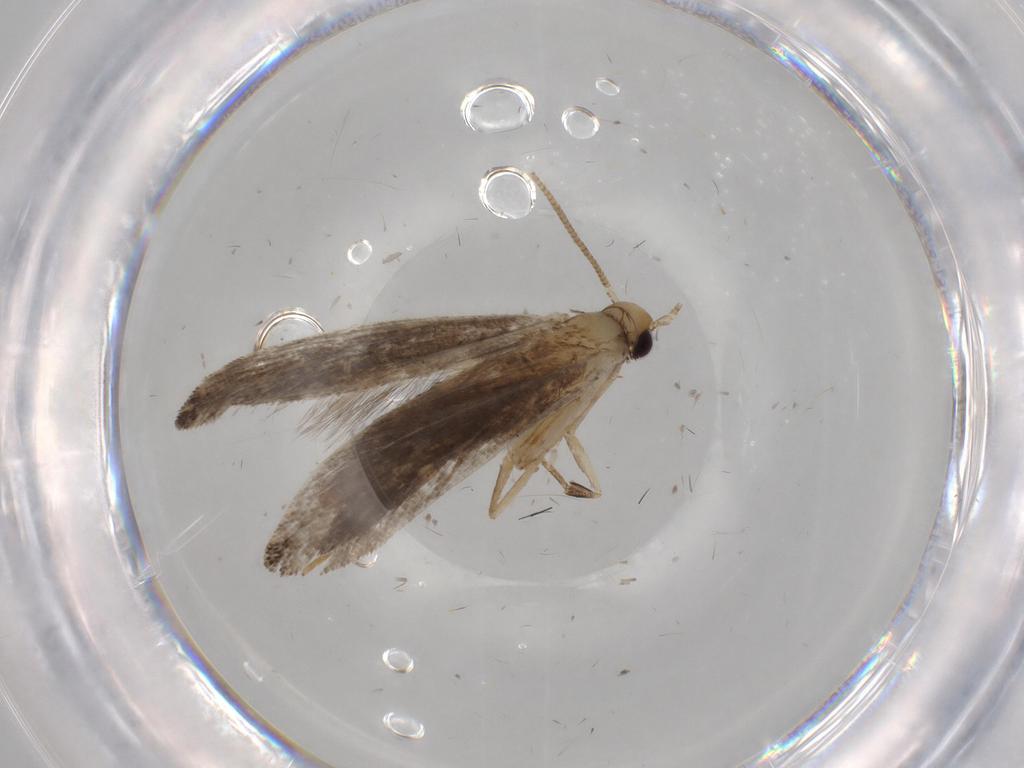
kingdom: Animalia
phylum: Arthropoda
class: Insecta
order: Lepidoptera
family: Tineidae
